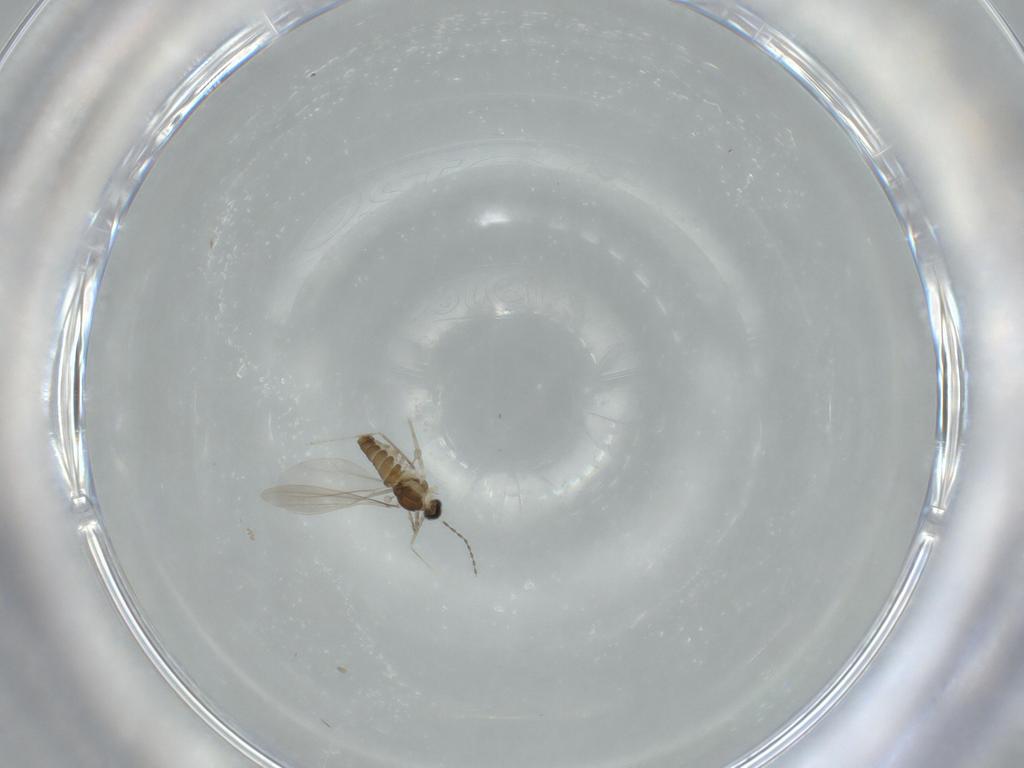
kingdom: Animalia
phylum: Arthropoda
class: Insecta
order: Diptera
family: Cecidomyiidae
